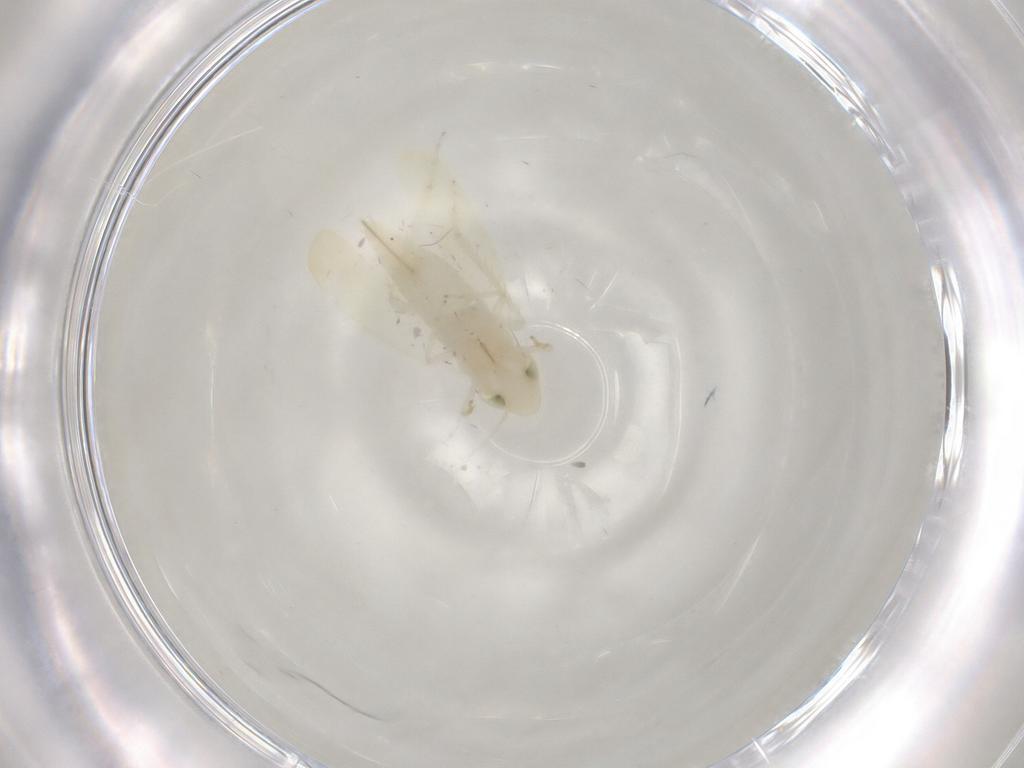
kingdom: Animalia
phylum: Arthropoda
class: Insecta
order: Hemiptera
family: Cicadellidae
